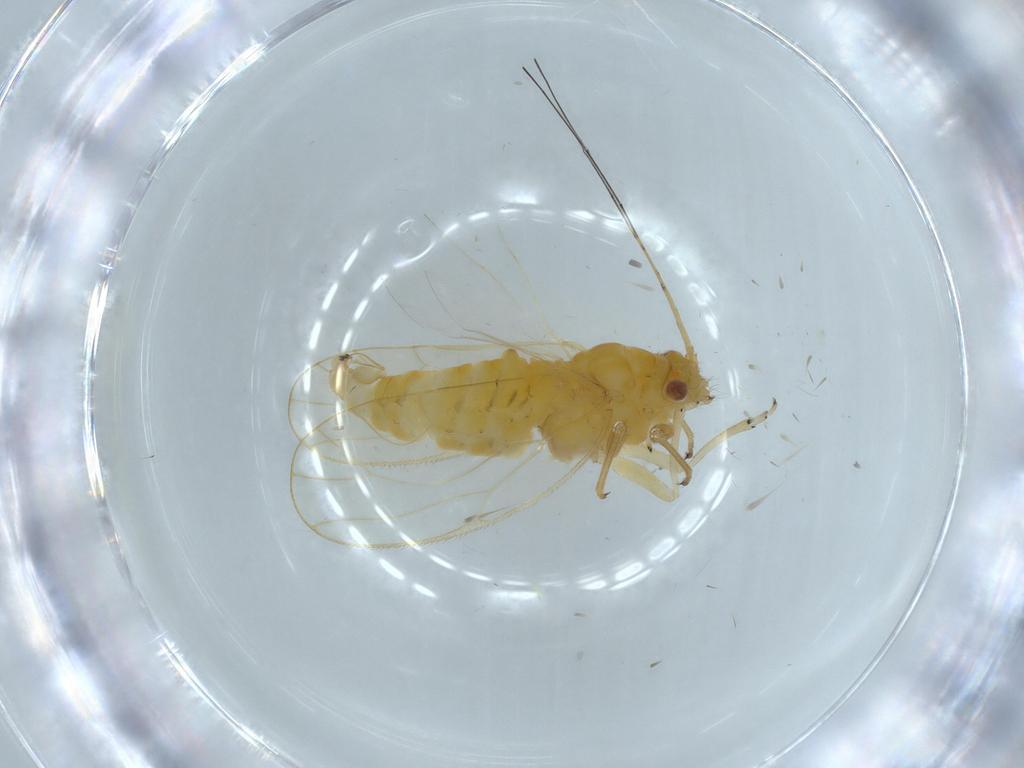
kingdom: Animalia
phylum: Arthropoda
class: Insecta
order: Hemiptera
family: Psyllidae
